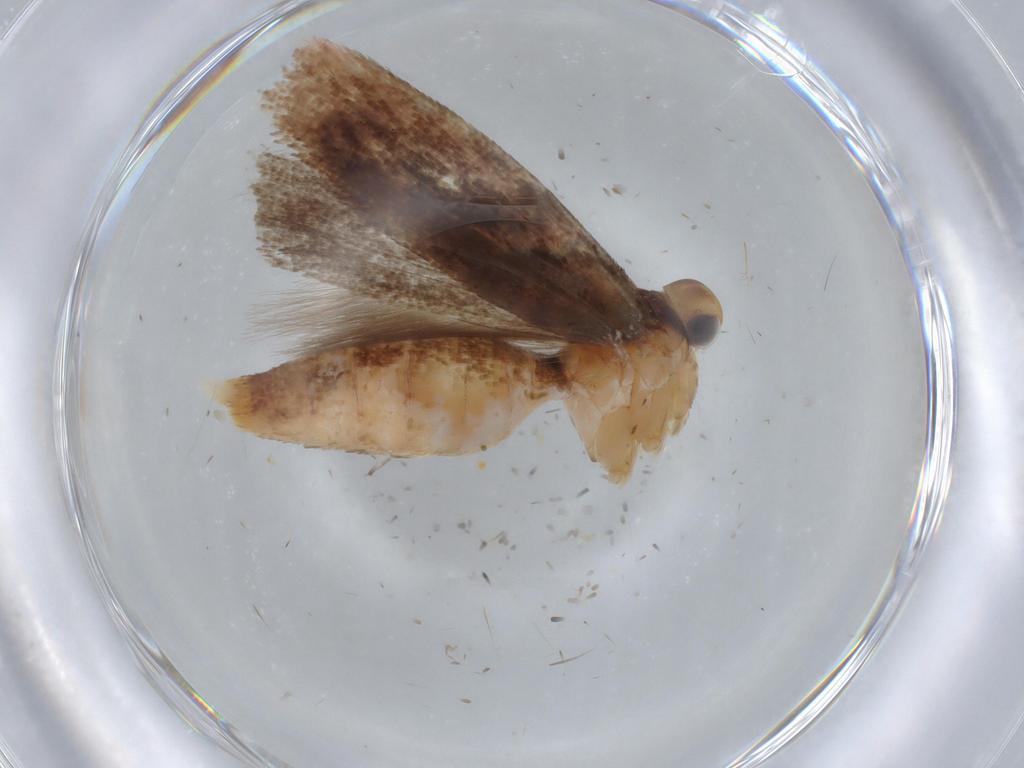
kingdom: Animalia
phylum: Arthropoda
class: Insecta
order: Lepidoptera
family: Gelechiidae
